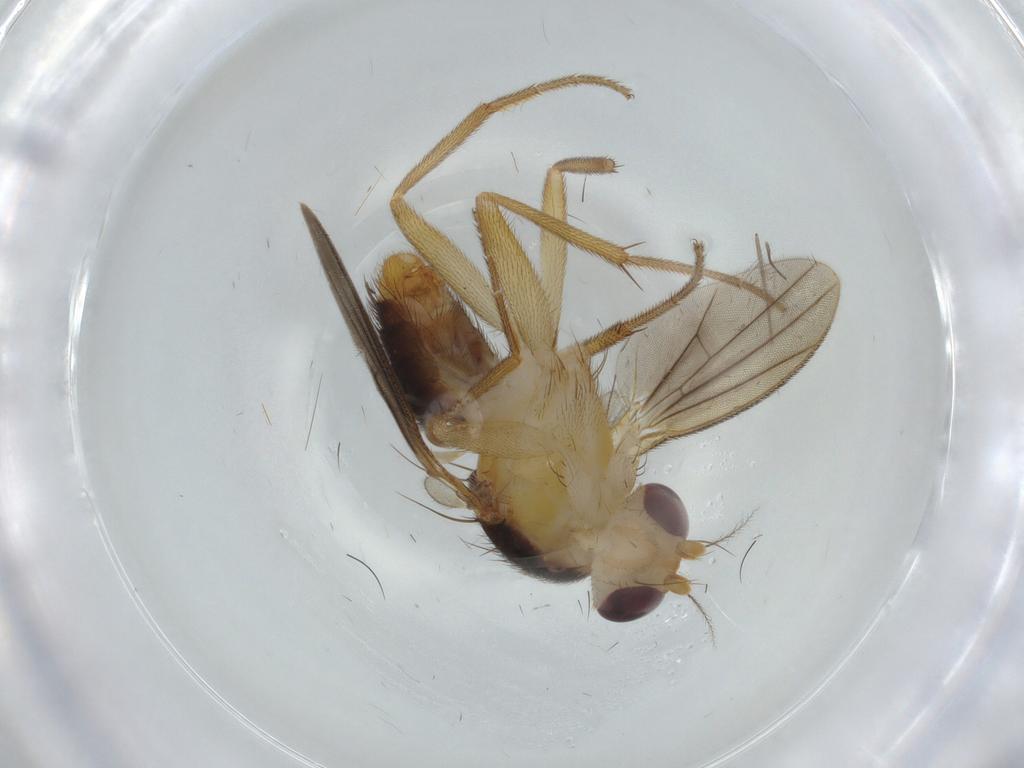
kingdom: Animalia
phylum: Arthropoda
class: Insecta
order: Diptera
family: Clusiidae
